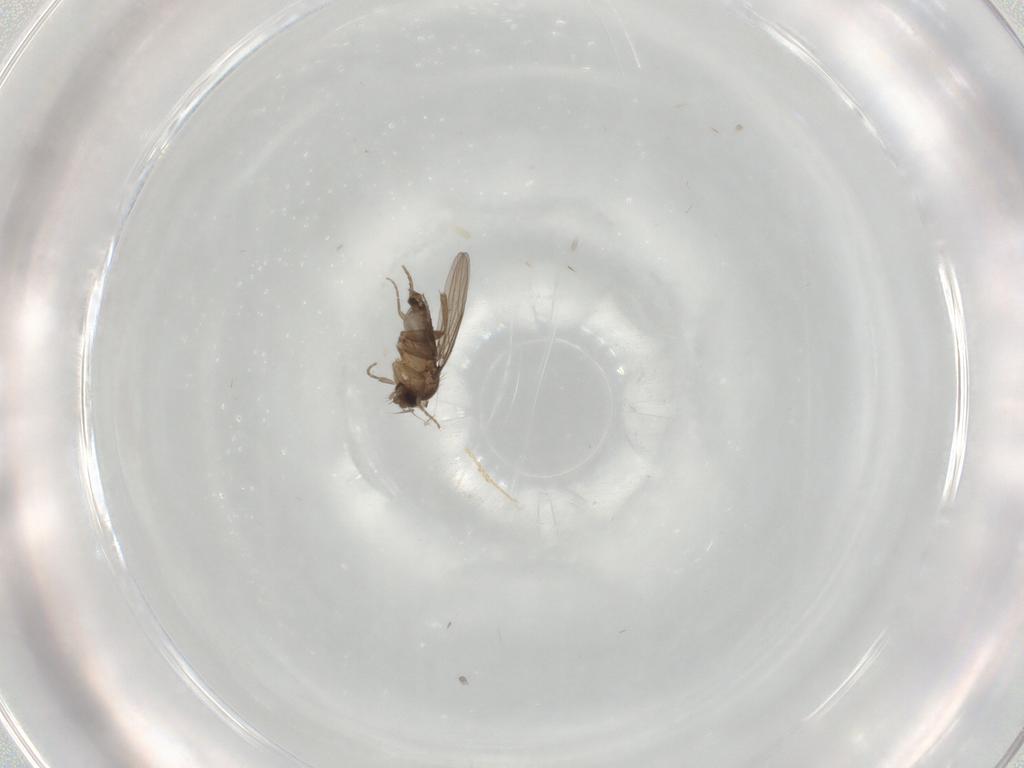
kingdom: Animalia
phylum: Arthropoda
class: Insecta
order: Diptera
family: Phoridae
